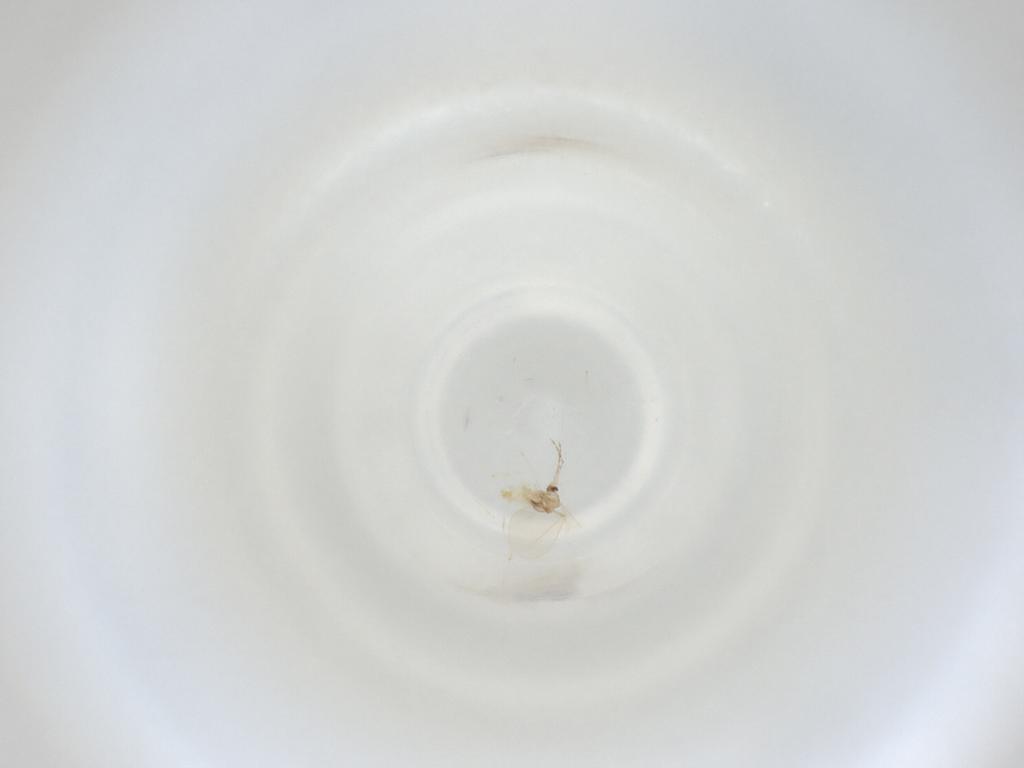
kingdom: Animalia
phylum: Arthropoda
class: Insecta
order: Diptera
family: Cecidomyiidae
